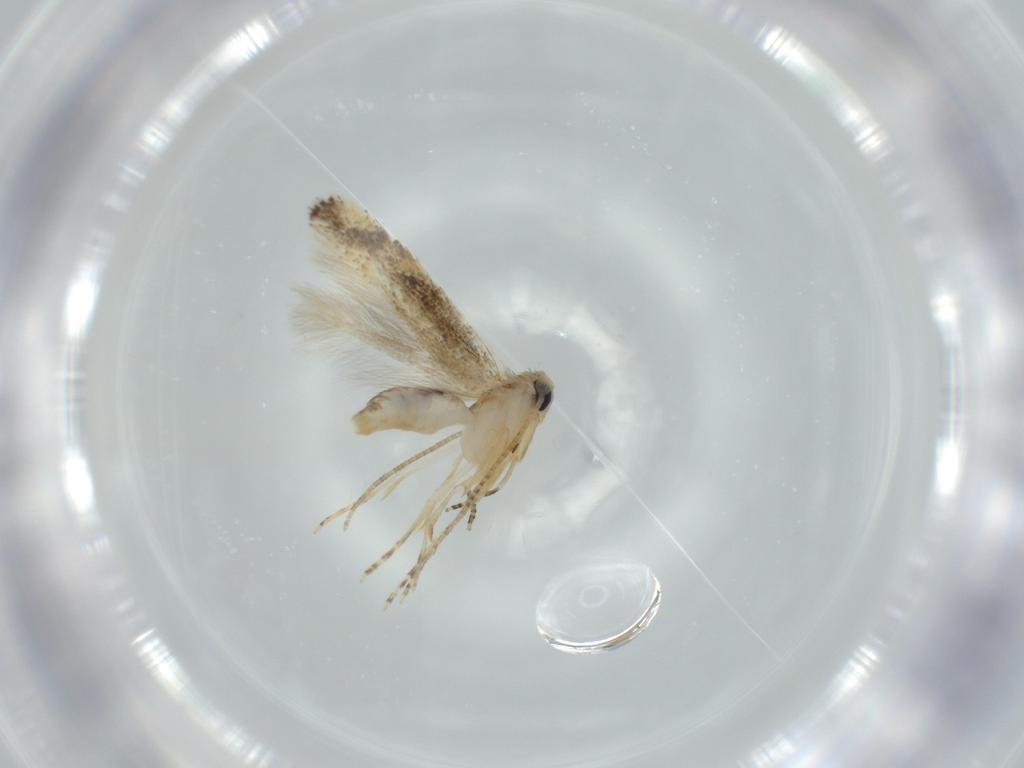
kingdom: Animalia
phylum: Arthropoda
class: Insecta
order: Lepidoptera
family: Bucculatricidae
